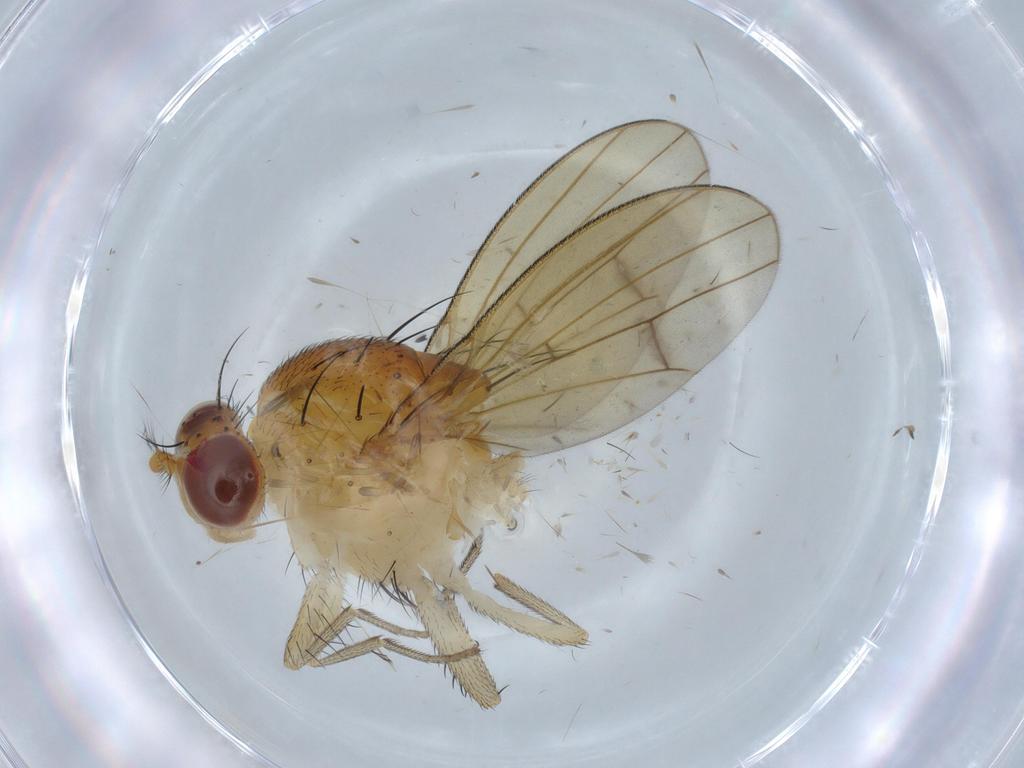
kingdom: Animalia
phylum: Arthropoda
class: Insecta
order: Diptera
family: Lauxaniidae
